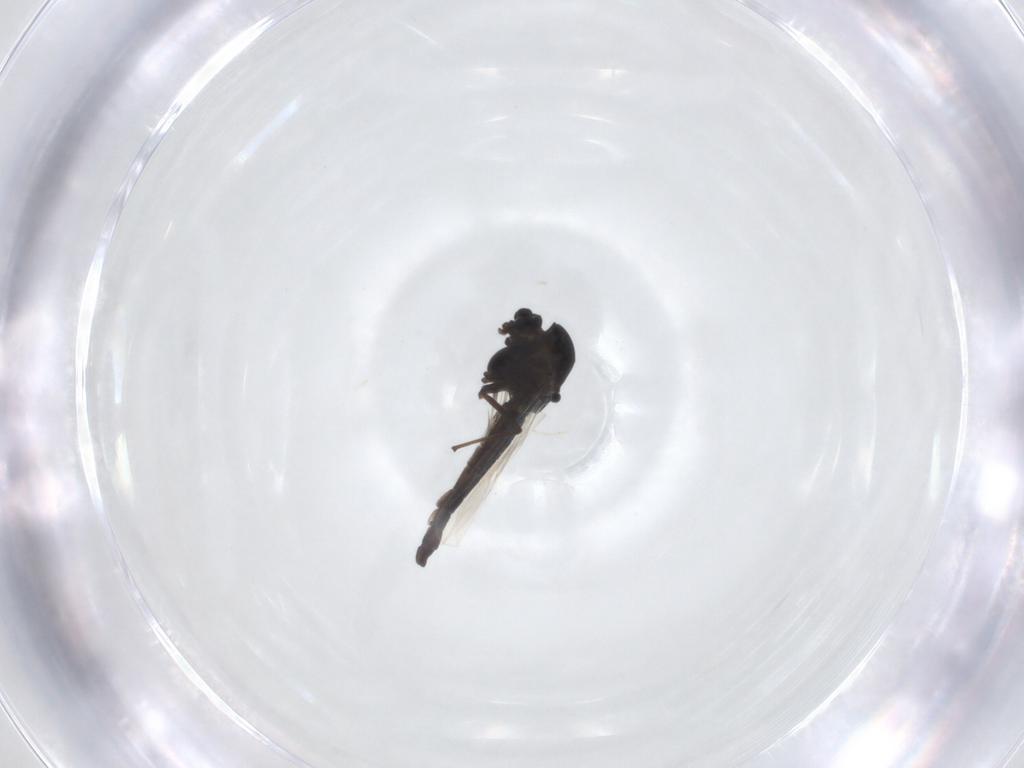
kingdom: Animalia
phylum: Arthropoda
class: Insecta
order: Diptera
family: Chironomidae
